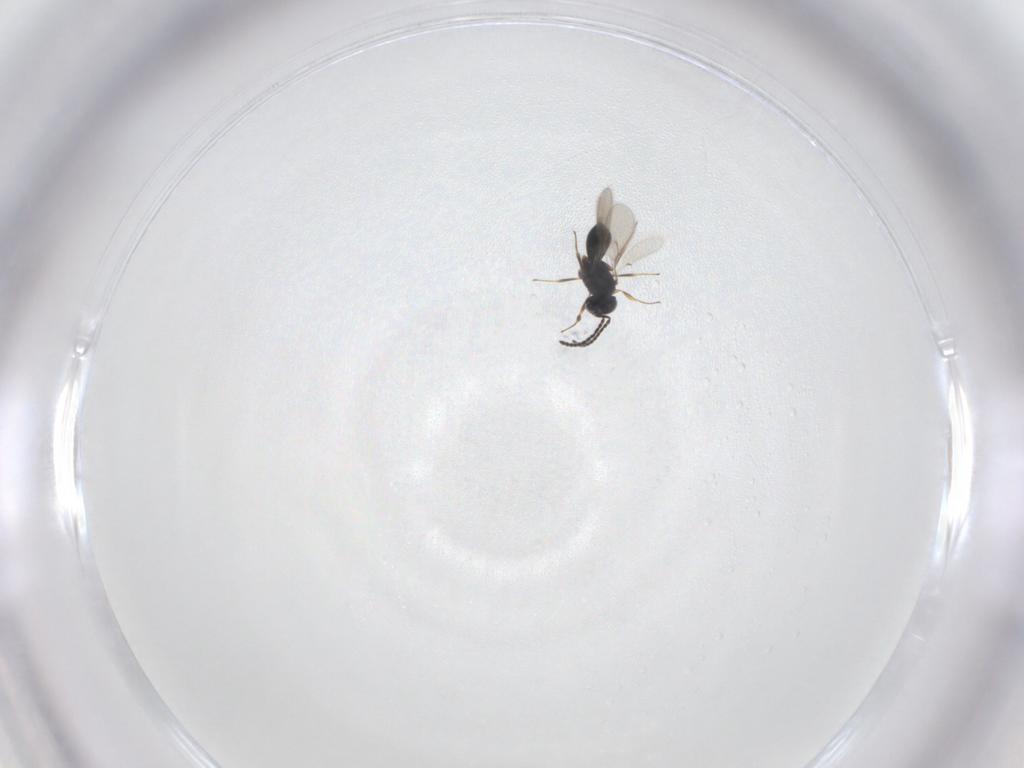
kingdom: Animalia
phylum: Arthropoda
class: Insecta
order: Hymenoptera
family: Scelionidae
